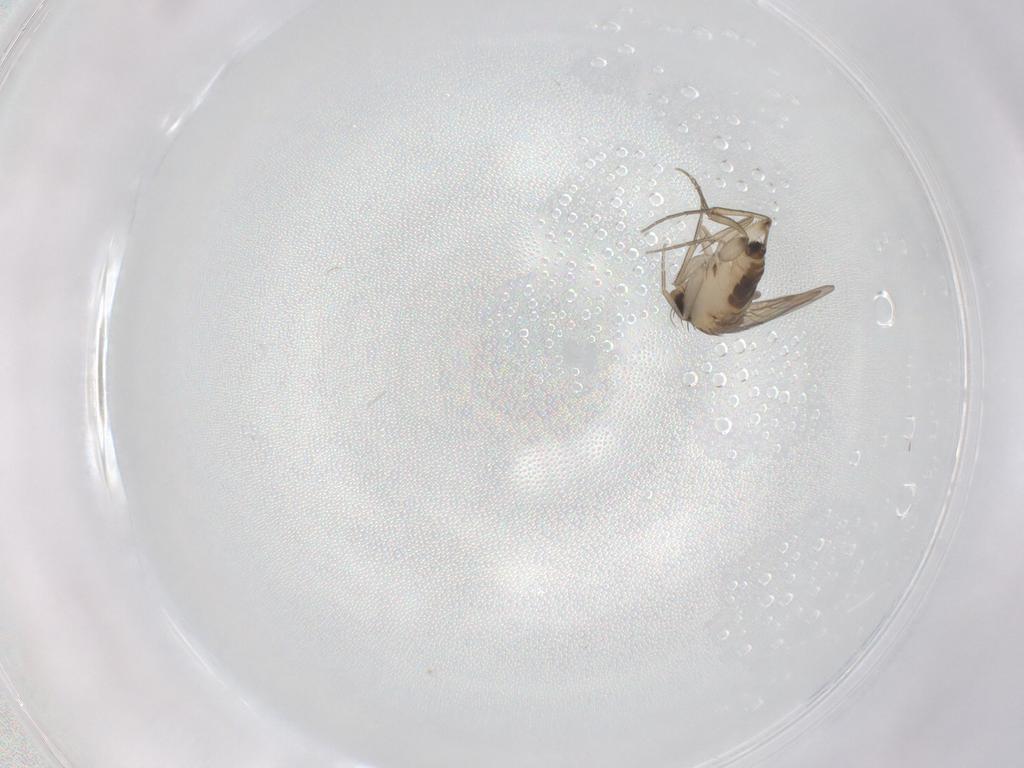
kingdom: Animalia
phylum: Arthropoda
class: Insecta
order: Diptera
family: Phoridae
